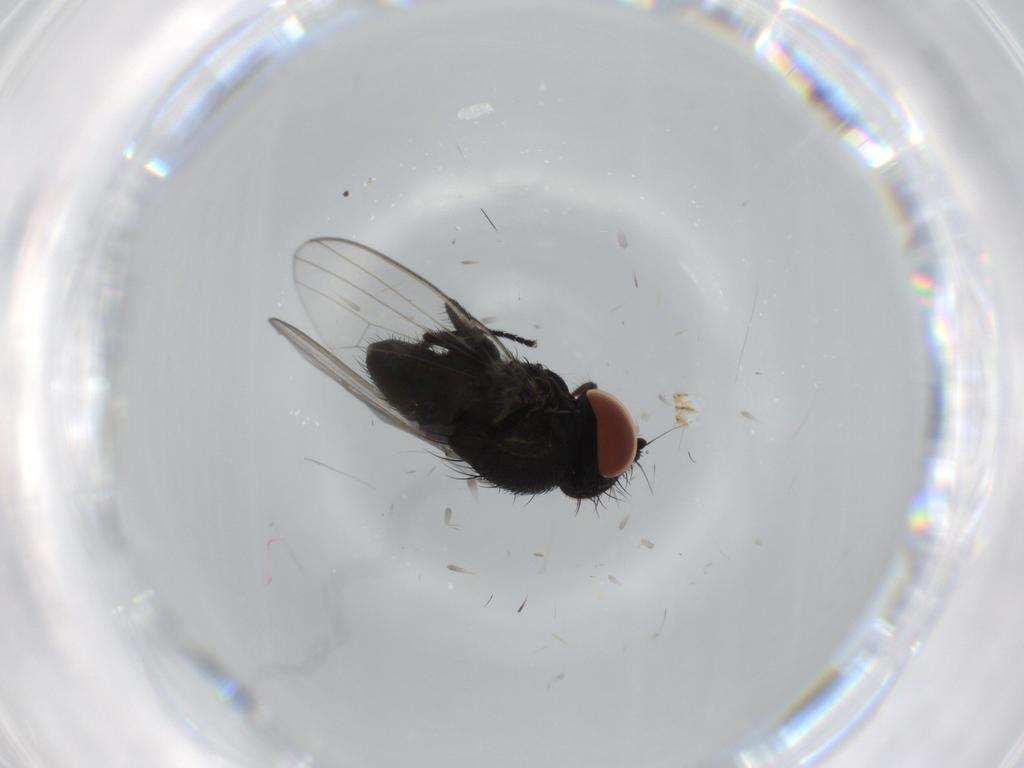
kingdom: Animalia
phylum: Arthropoda
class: Insecta
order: Diptera
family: Milichiidae
